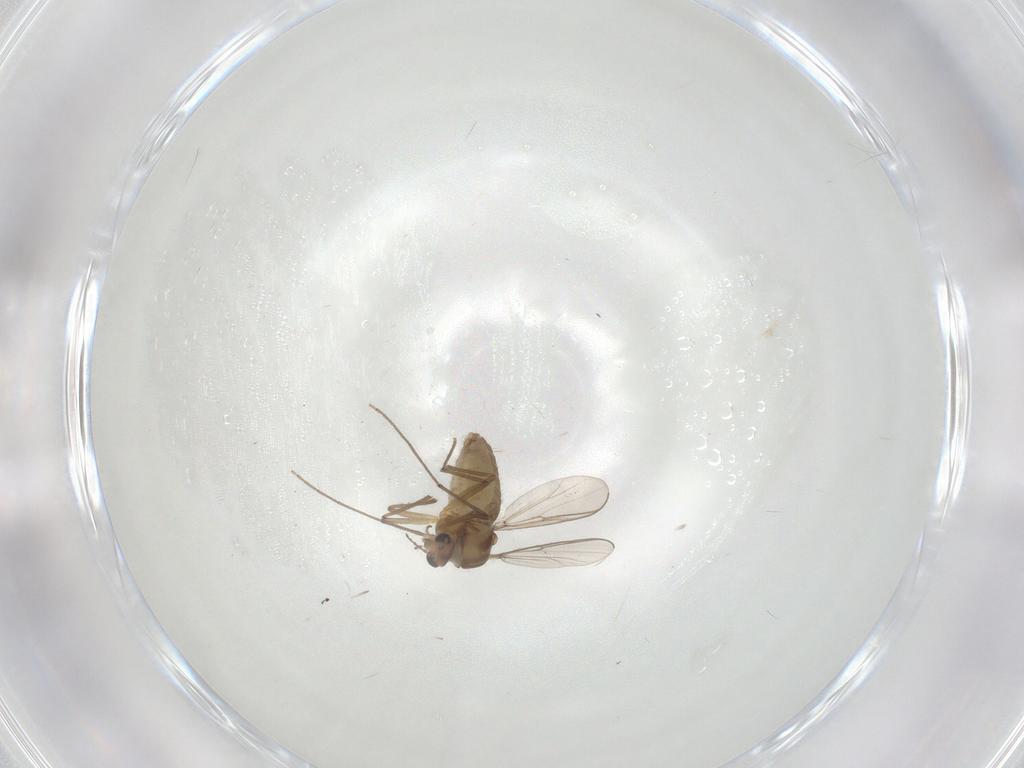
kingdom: Animalia
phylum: Arthropoda
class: Insecta
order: Diptera
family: Chironomidae
